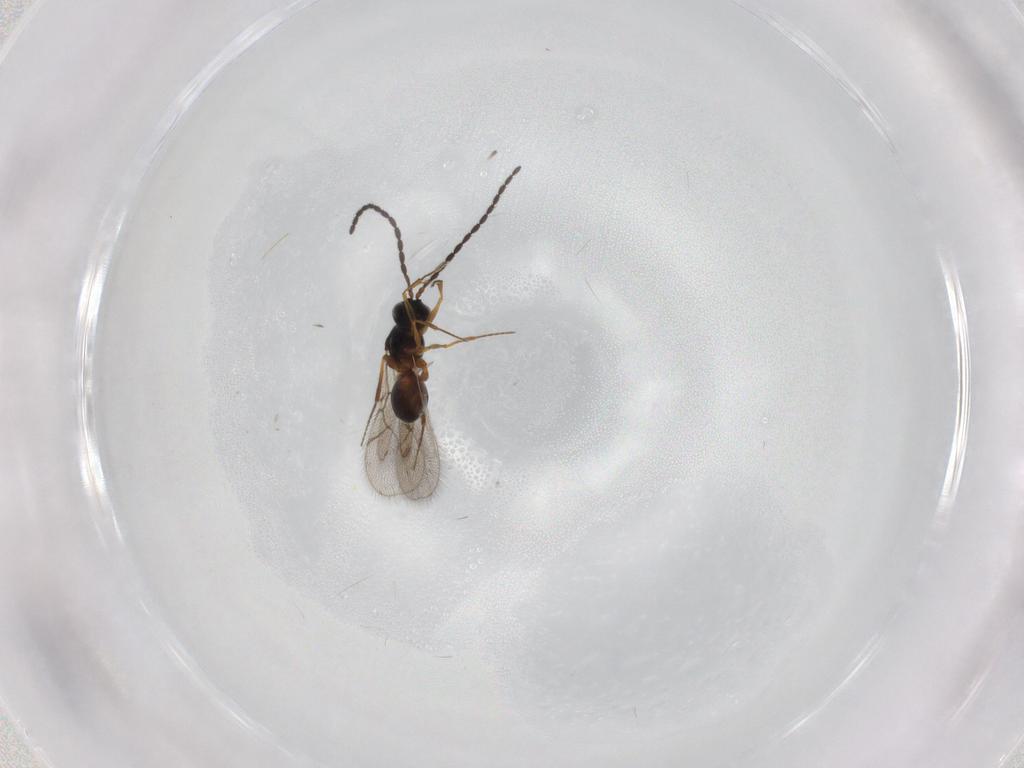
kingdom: Animalia
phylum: Arthropoda
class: Insecta
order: Hymenoptera
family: Figitidae
